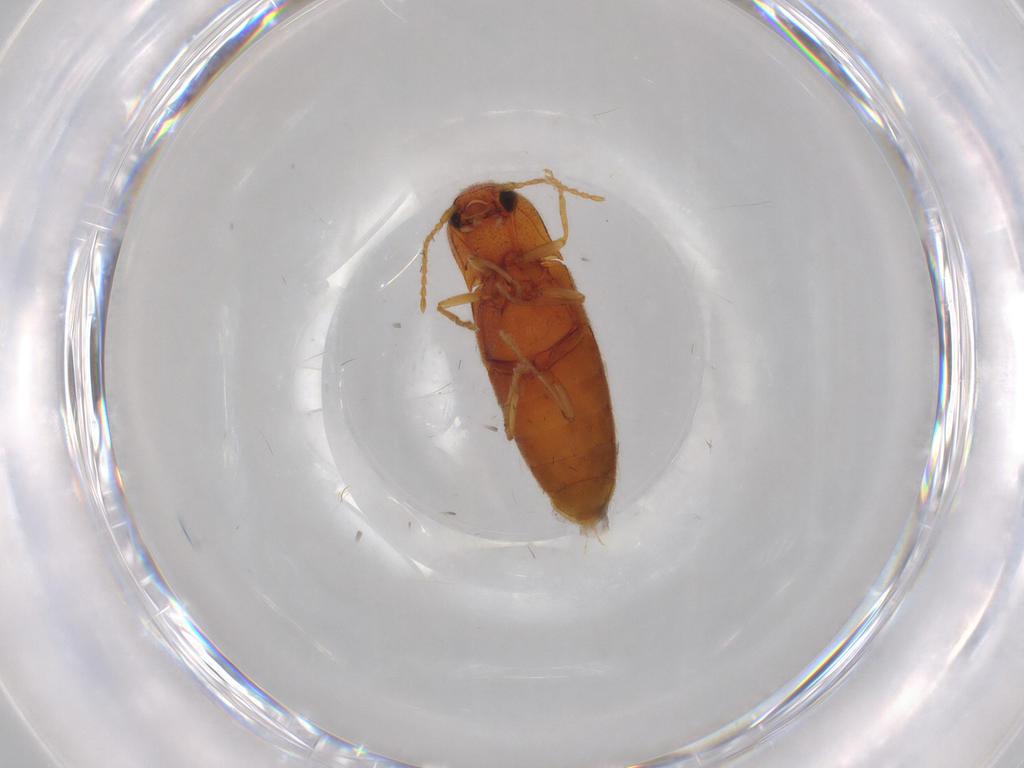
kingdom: Animalia
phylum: Arthropoda
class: Insecta
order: Coleoptera
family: Elateridae
